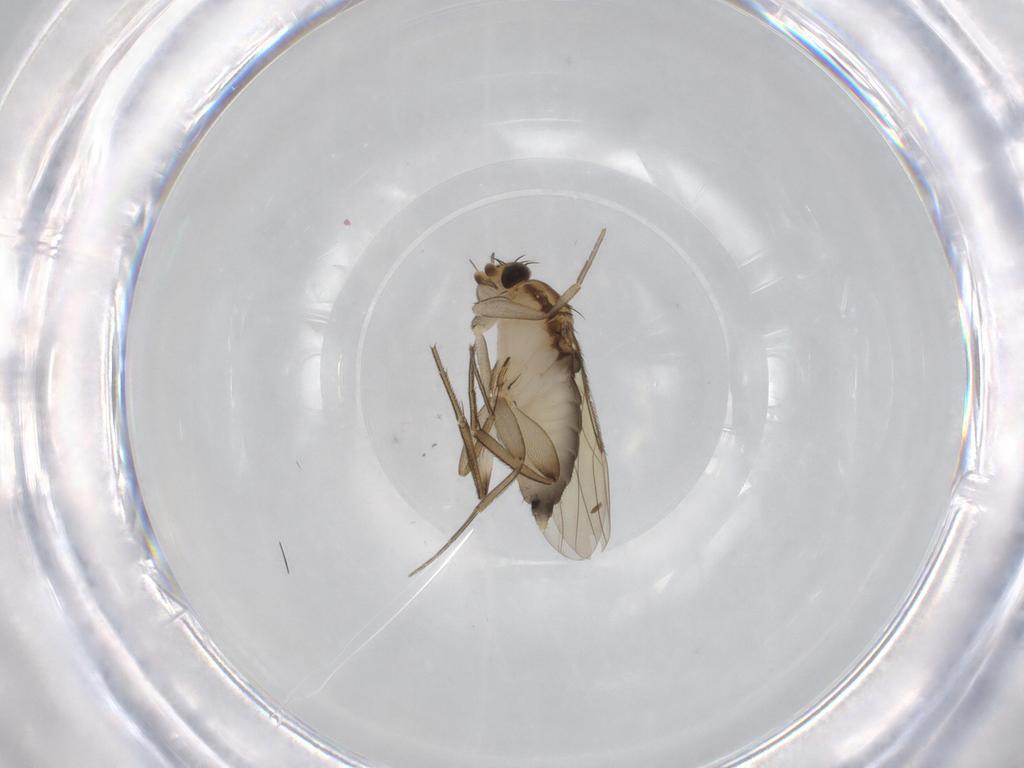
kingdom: Animalia
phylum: Arthropoda
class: Insecta
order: Diptera
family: Phoridae
